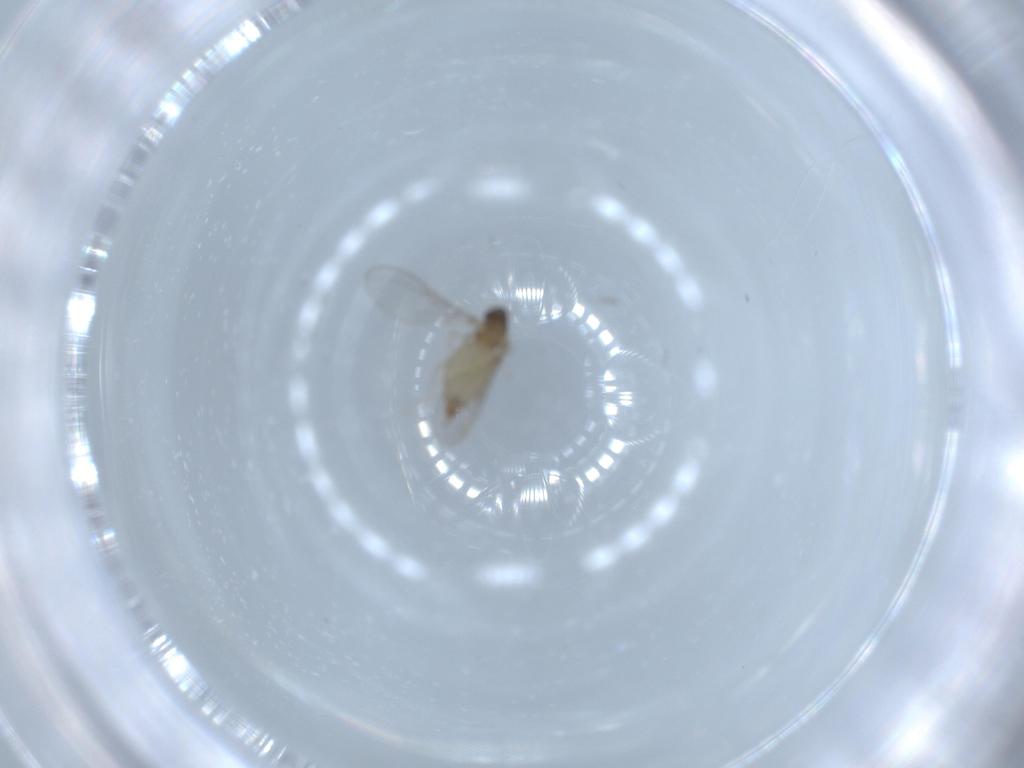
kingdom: Animalia
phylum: Arthropoda
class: Insecta
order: Diptera
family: Cecidomyiidae
